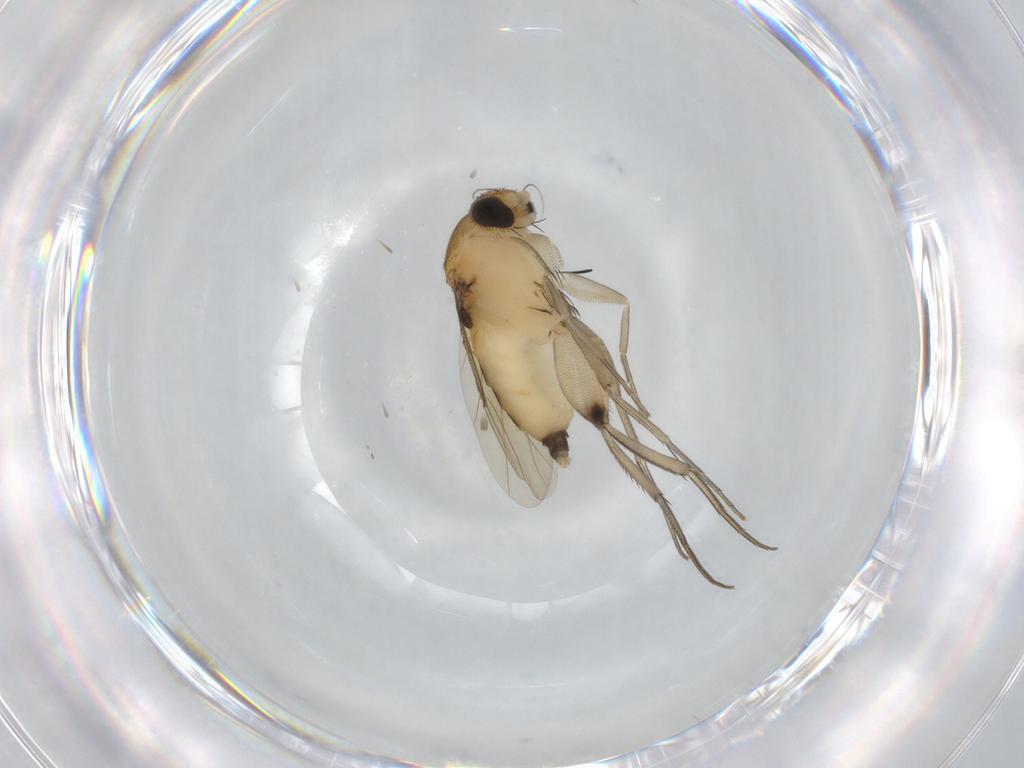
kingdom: Animalia
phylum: Arthropoda
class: Insecta
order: Diptera
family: Phoridae
